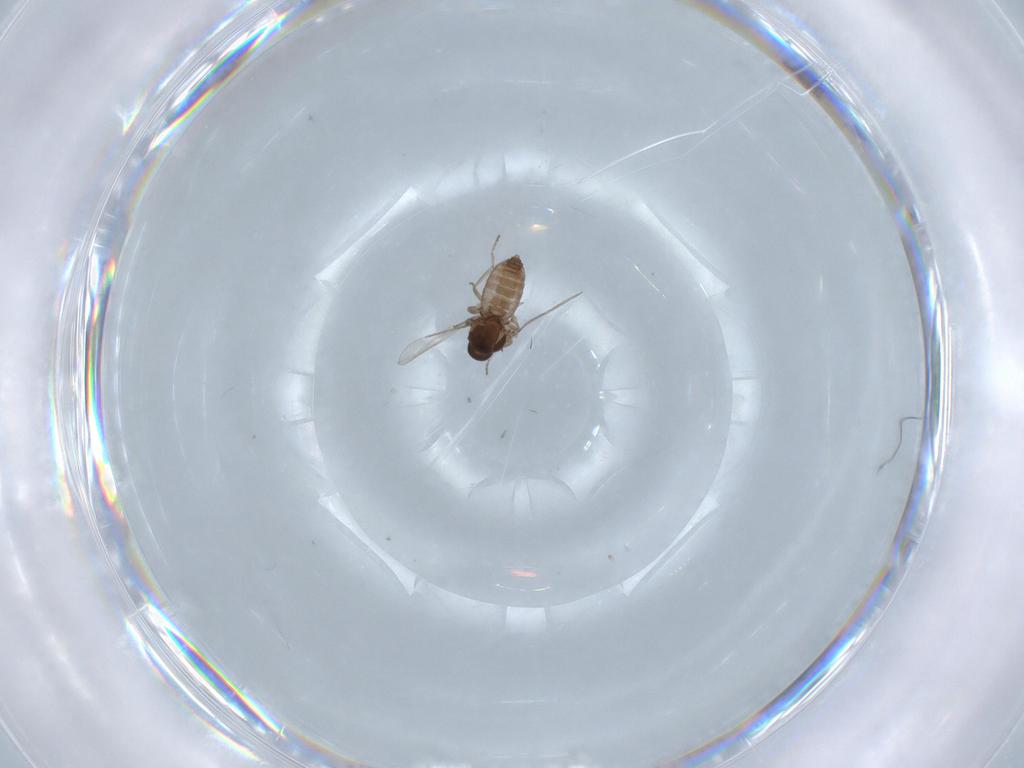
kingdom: Animalia
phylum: Arthropoda
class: Insecta
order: Diptera
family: Ceratopogonidae
